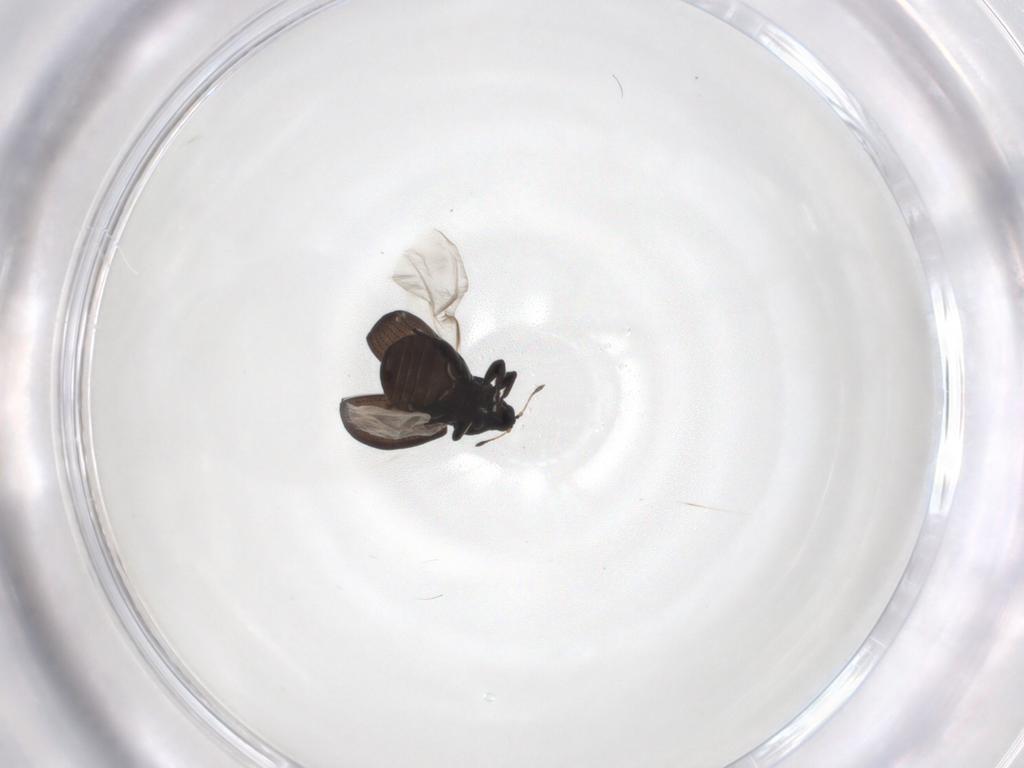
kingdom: Animalia
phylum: Arthropoda
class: Insecta
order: Coleoptera
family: Curculionidae
